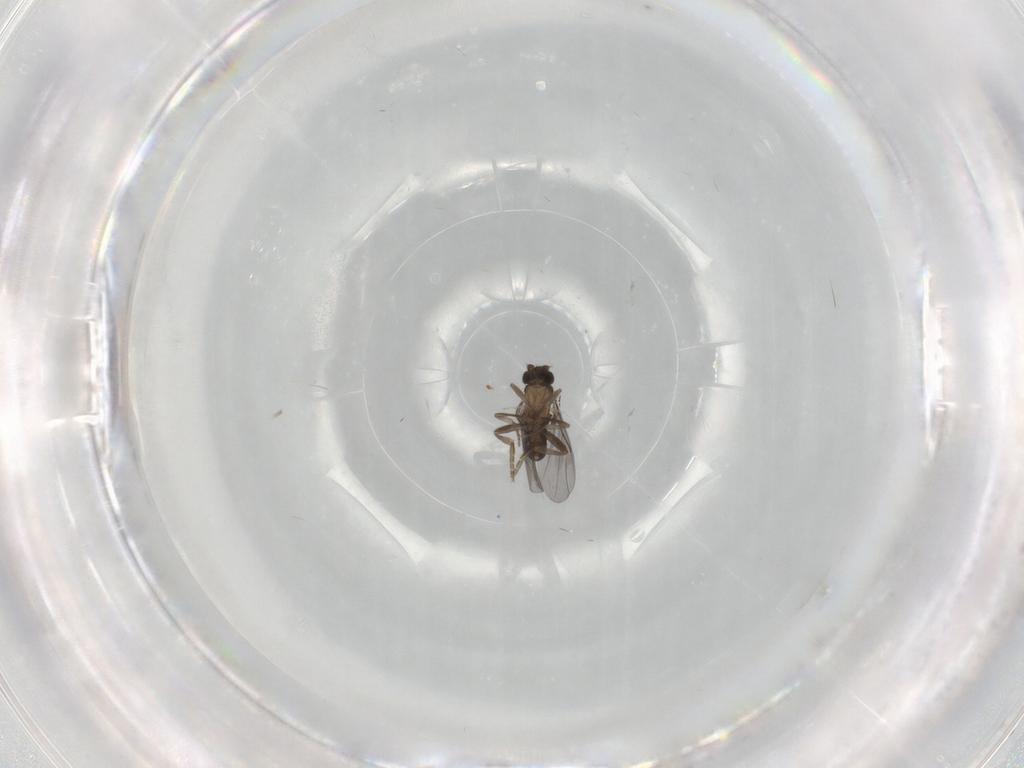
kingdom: Animalia
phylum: Arthropoda
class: Insecta
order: Diptera
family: Cecidomyiidae
